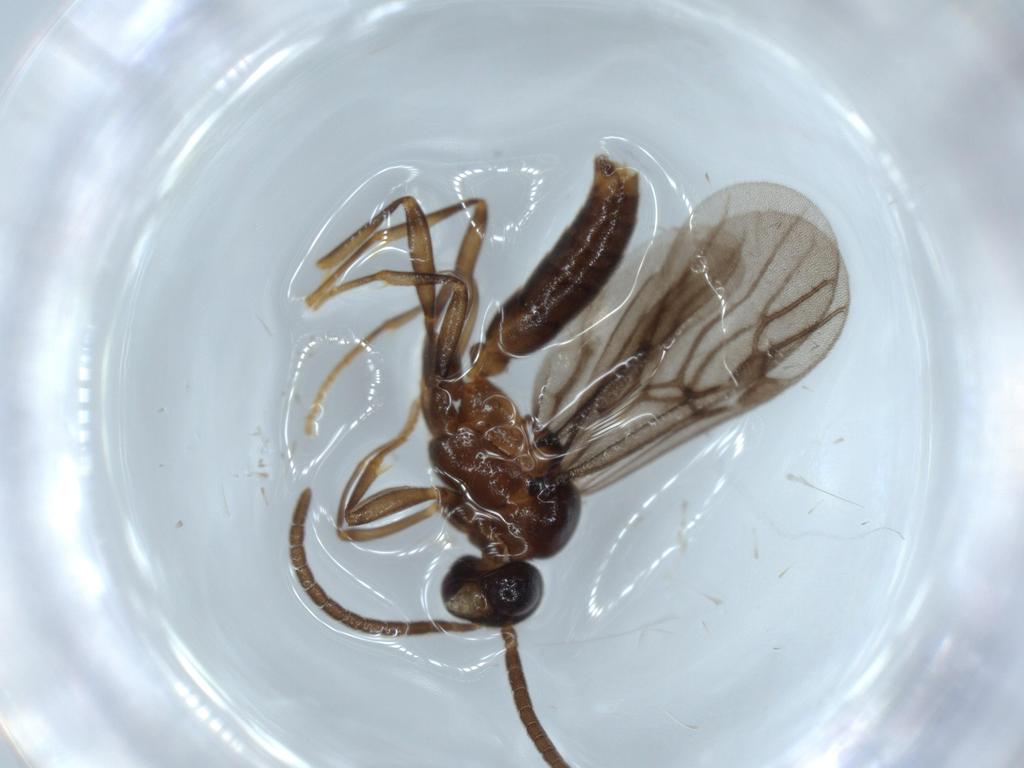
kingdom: Animalia
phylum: Arthropoda
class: Insecta
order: Hymenoptera
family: Formicidae
